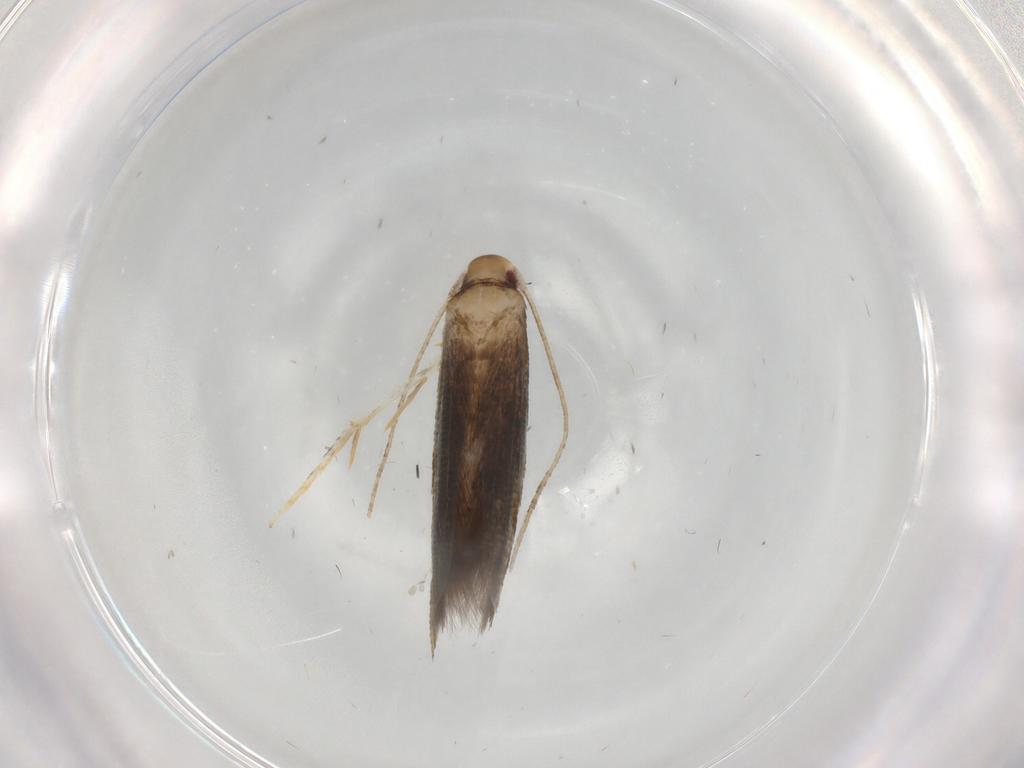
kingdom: Animalia
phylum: Arthropoda
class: Insecta
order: Lepidoptera
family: Momphidae
